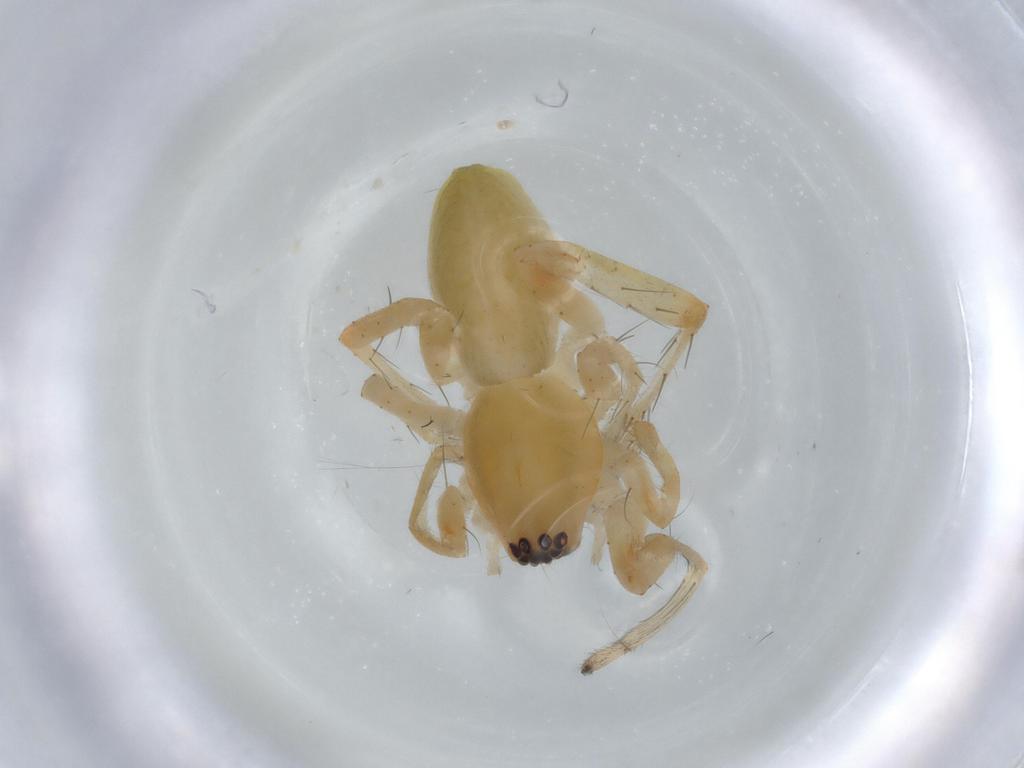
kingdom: Animalia
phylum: Arthropoda
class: Arachnida
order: Araneae
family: Anyphaenidae
